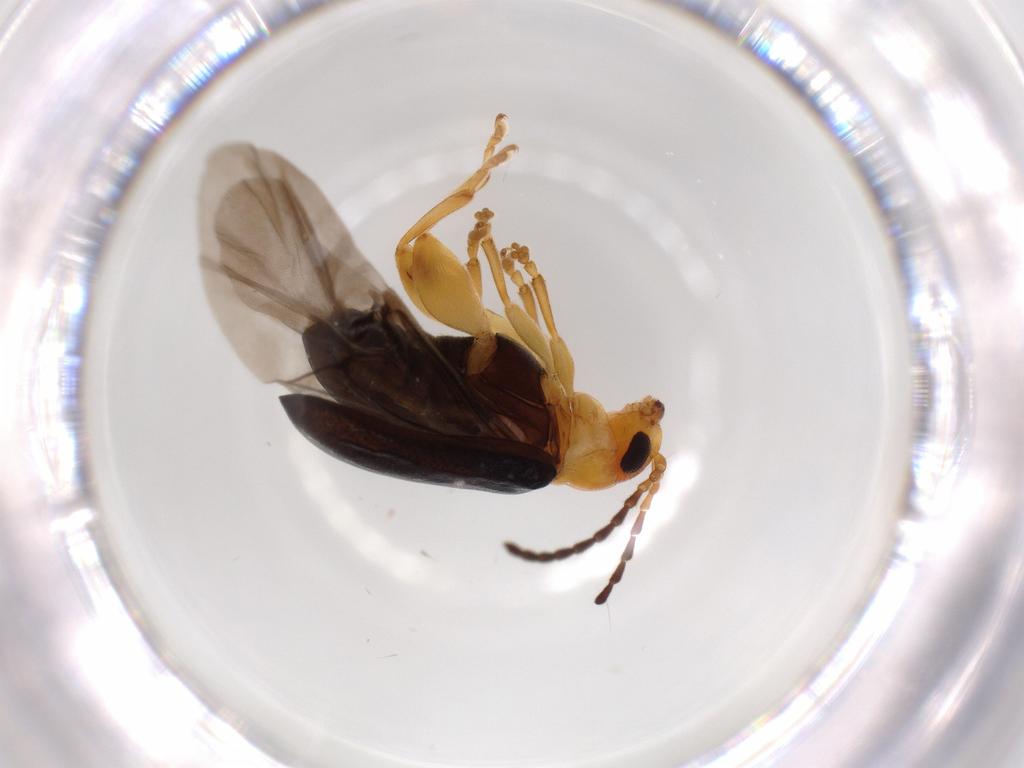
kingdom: Animalia
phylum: Arthropoda
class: Insecta
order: Coleoptera
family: Chrysomelidae
